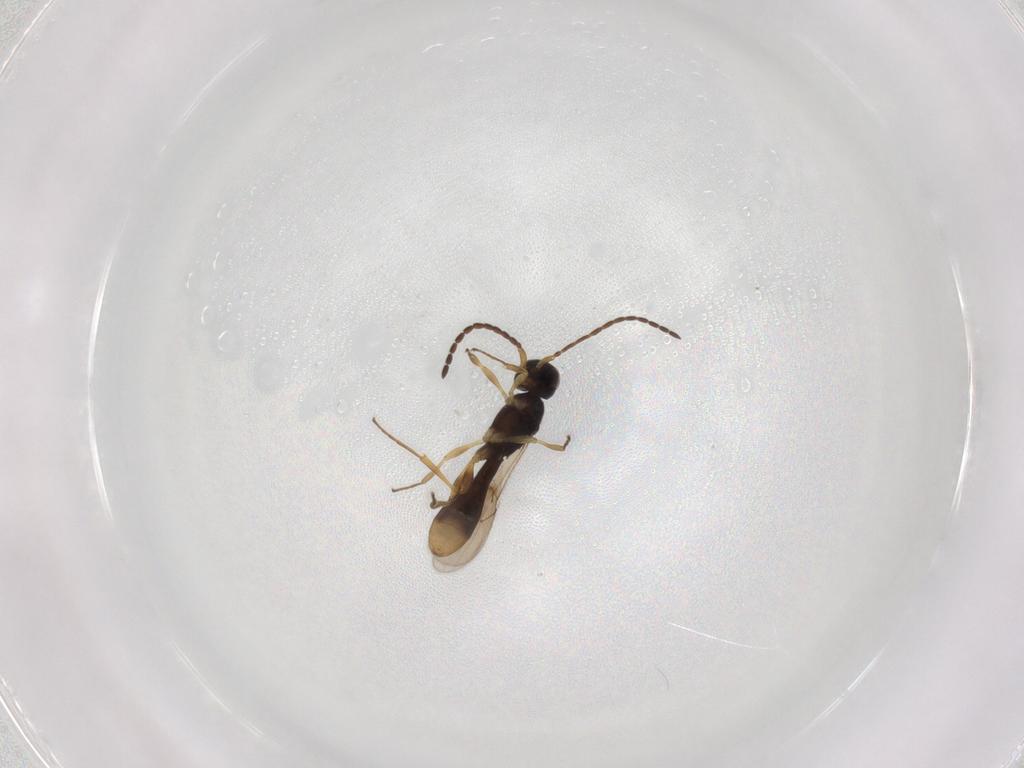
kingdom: Animalia
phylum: Arthropoda
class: Insecta
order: Hymenoptera
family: Scelionidae
